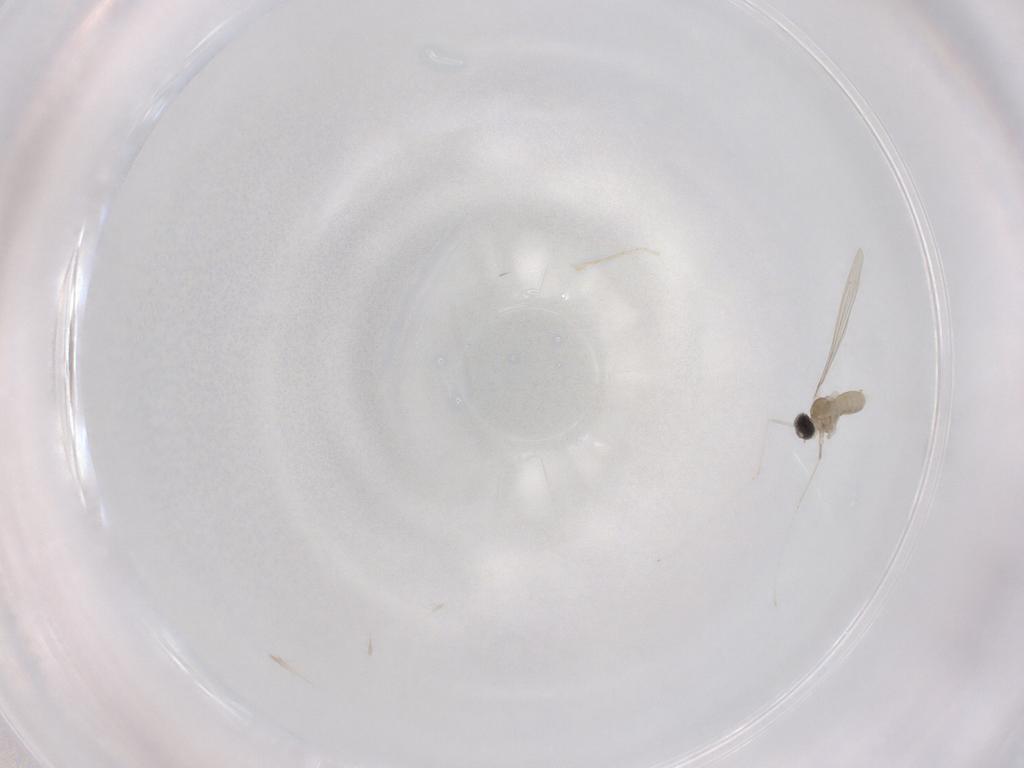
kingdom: Animalia
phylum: Arthropoda
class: Insecta
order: Diptera
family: Cecidomyiidae
